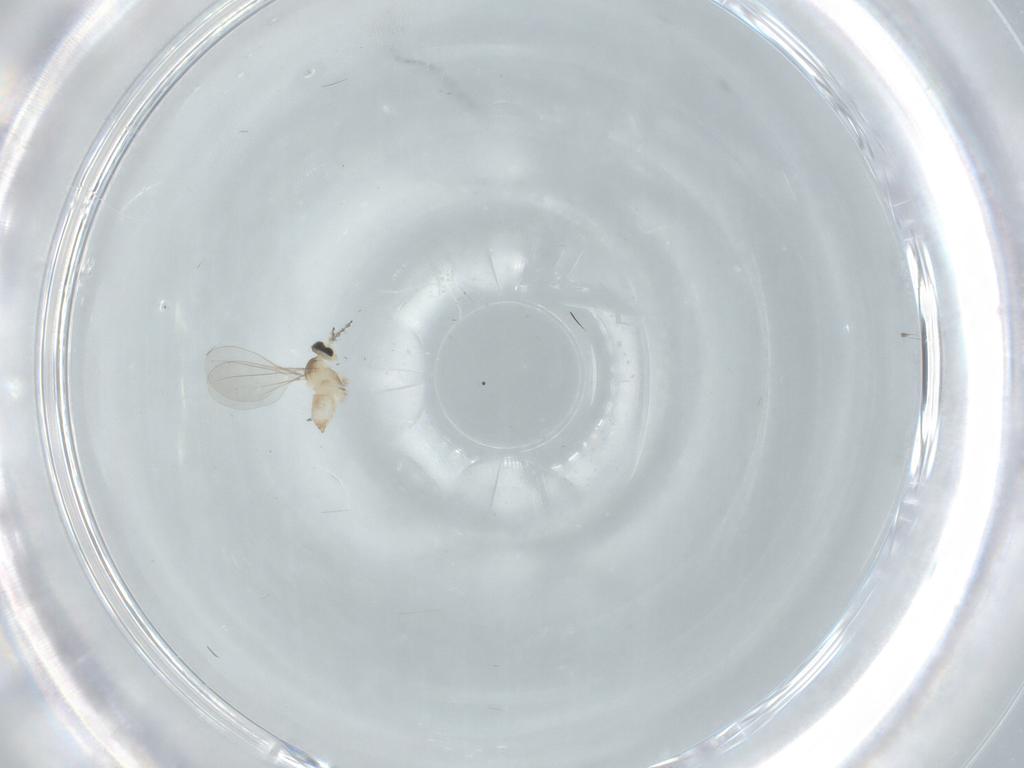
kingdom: Animalia
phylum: Arthropoda
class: Insecta
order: Diptera
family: Cecidomyiidae
